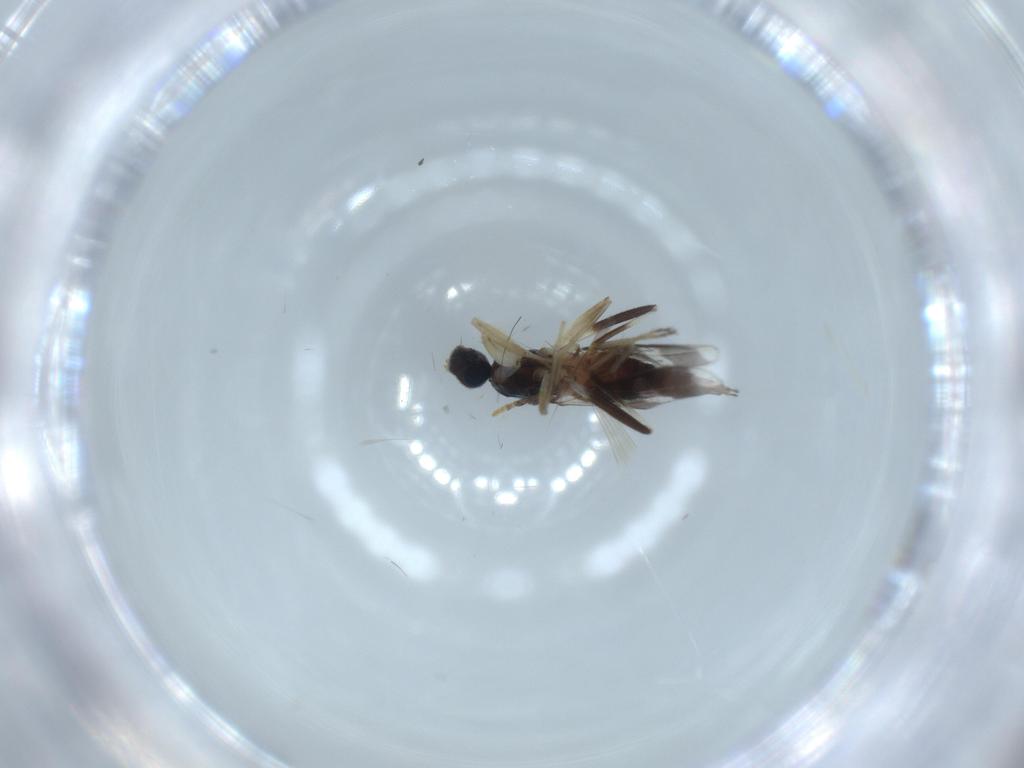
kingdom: Animalia
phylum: Arthropoda
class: Insecta
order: Diptera
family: Hybotidae
